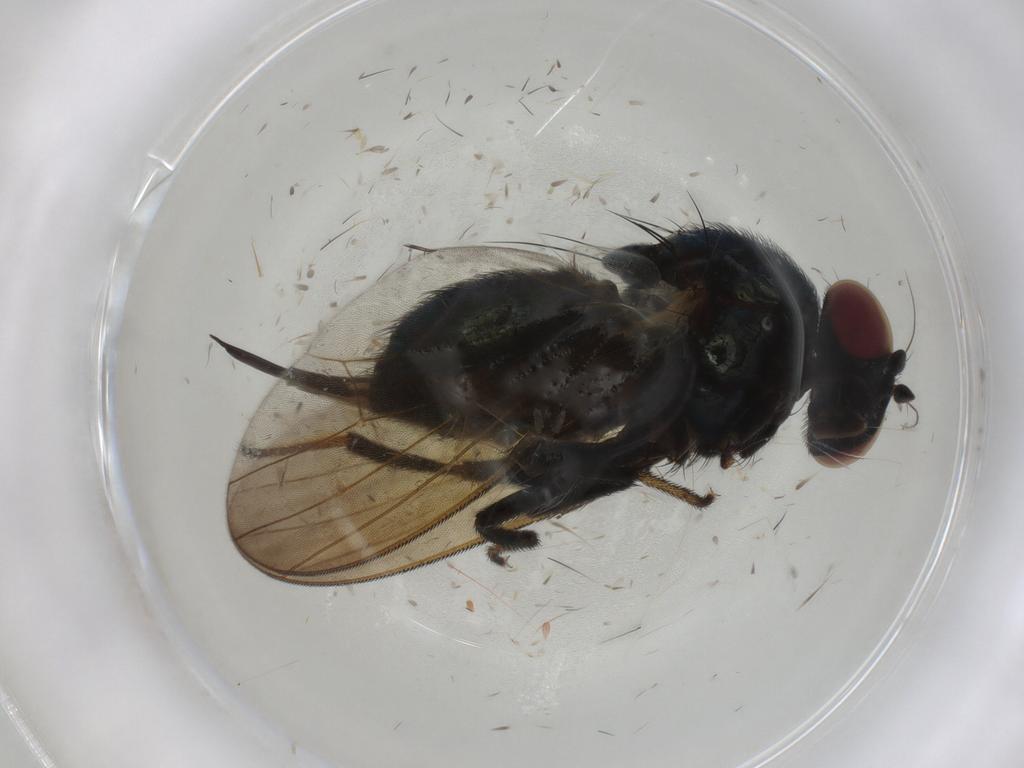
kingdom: Animalia
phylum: Arthropoda
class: Insecta
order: Diptera
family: Lonchaeidae
